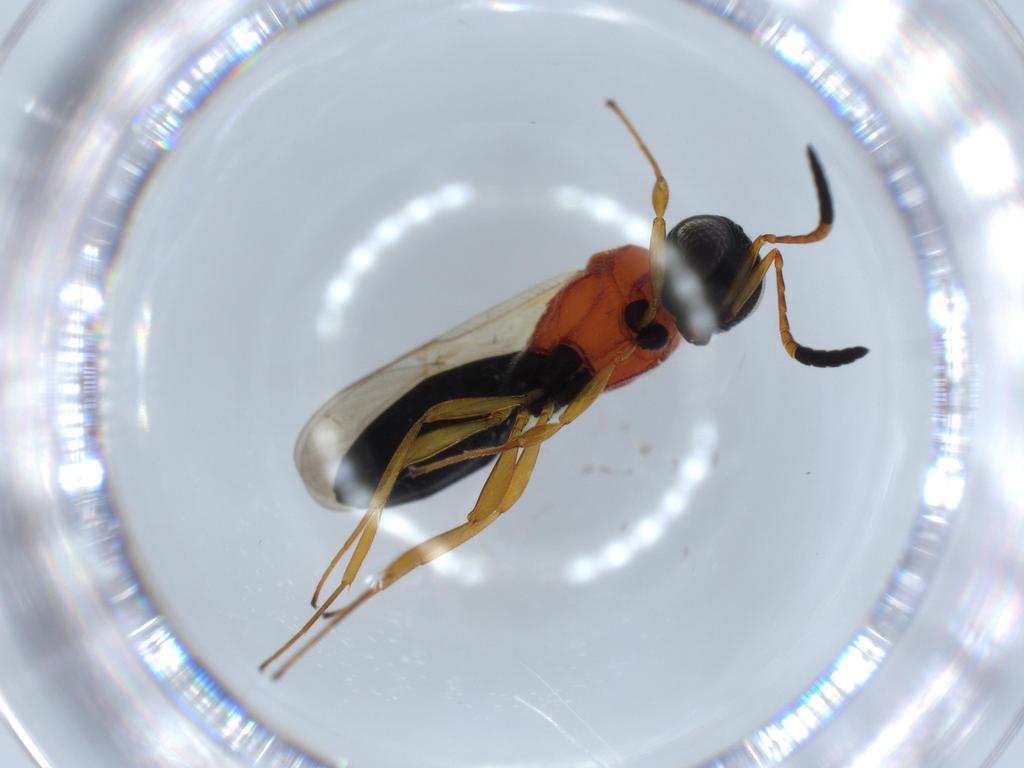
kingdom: Animalia
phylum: Arthropoda
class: Insecta
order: Hymenoptera
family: Scelionidae
